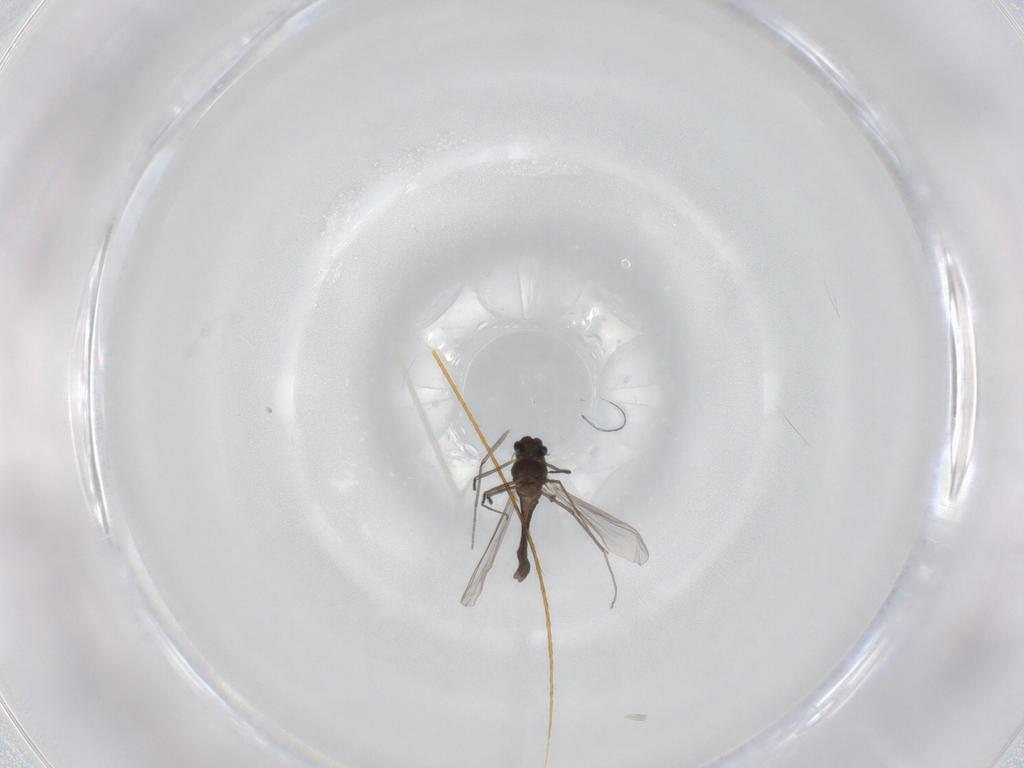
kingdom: Animalia
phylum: Arthropoda
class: Insecta
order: Diptera
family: Chironomidae
